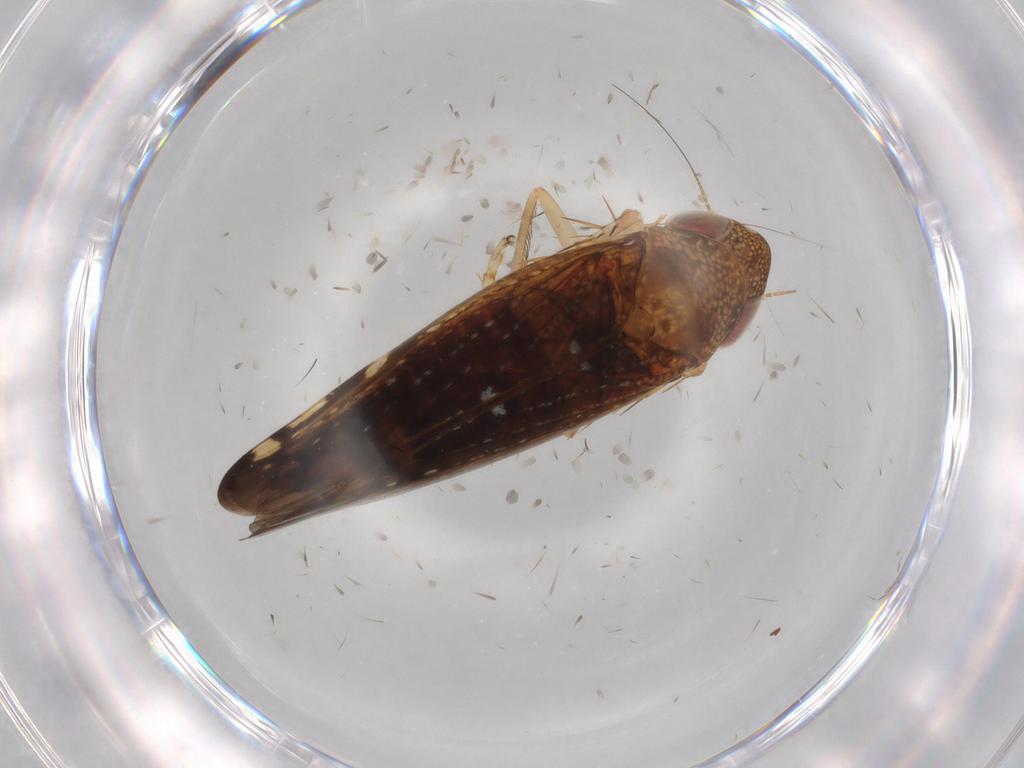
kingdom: Animalia
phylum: Arthropoda
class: Insecta
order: Hemiptera
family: Cicadellidae
